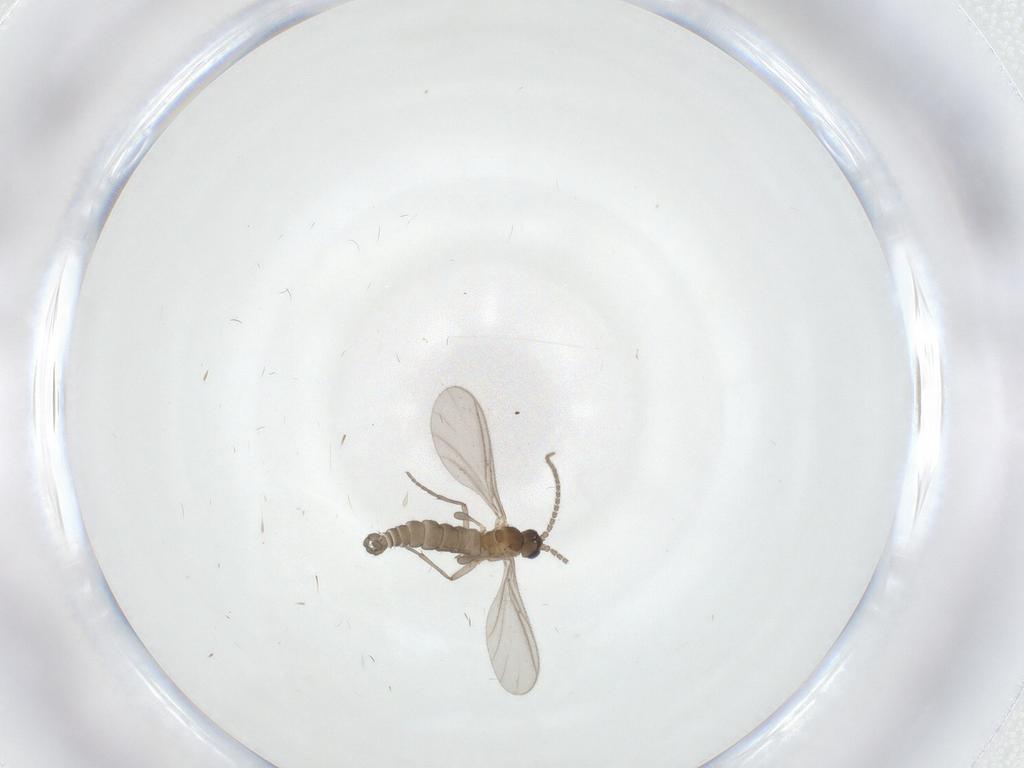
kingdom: Animalia
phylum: Arthropoda
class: Insecta
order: Diptera
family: Sciaridae
